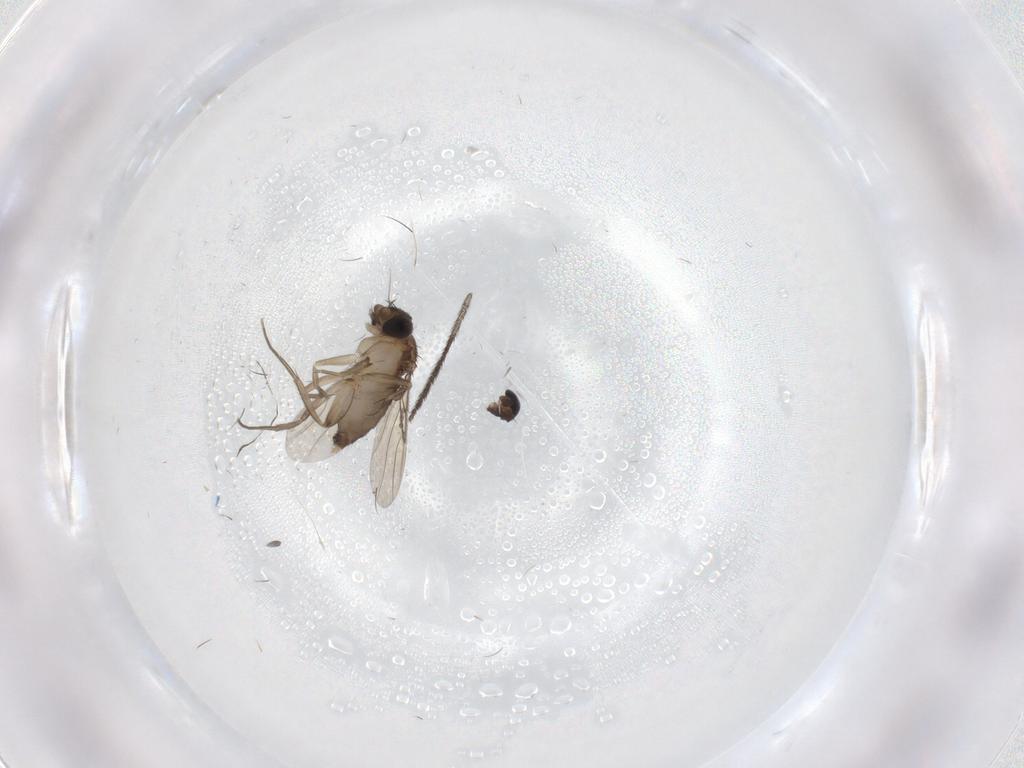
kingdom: Animalia
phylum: Arthropoda
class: Insecta
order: Diptera
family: Phoridae
